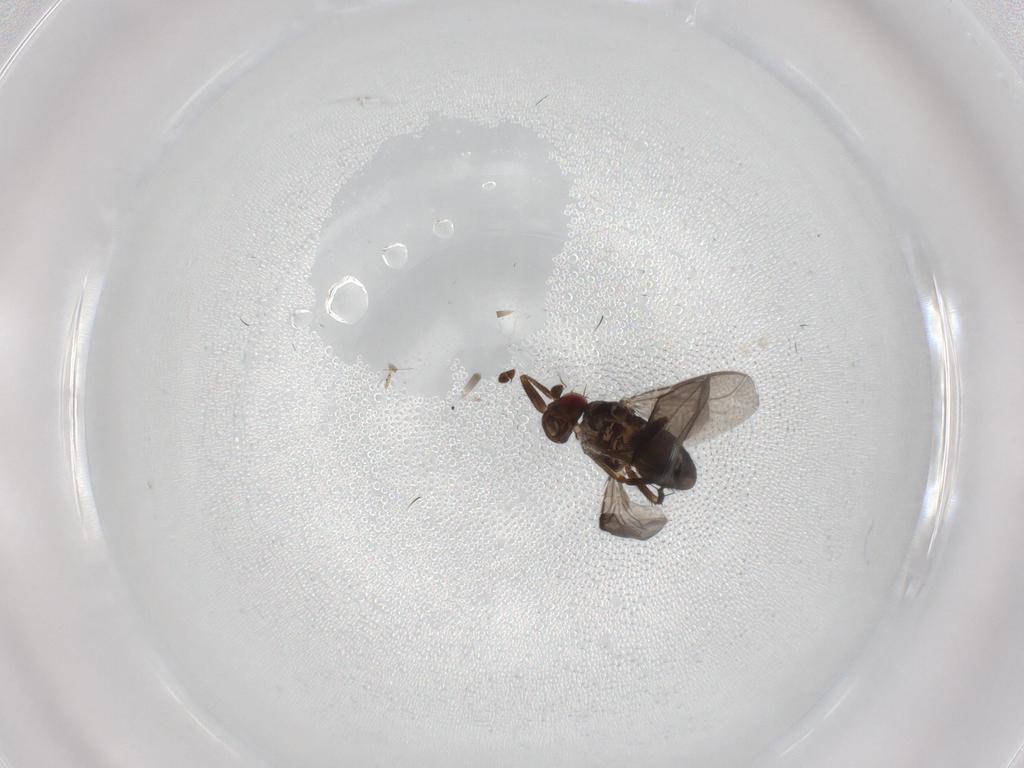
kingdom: Animalia
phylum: Arthropoda
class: Insecta
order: Diptera
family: Sphaeroceridae
